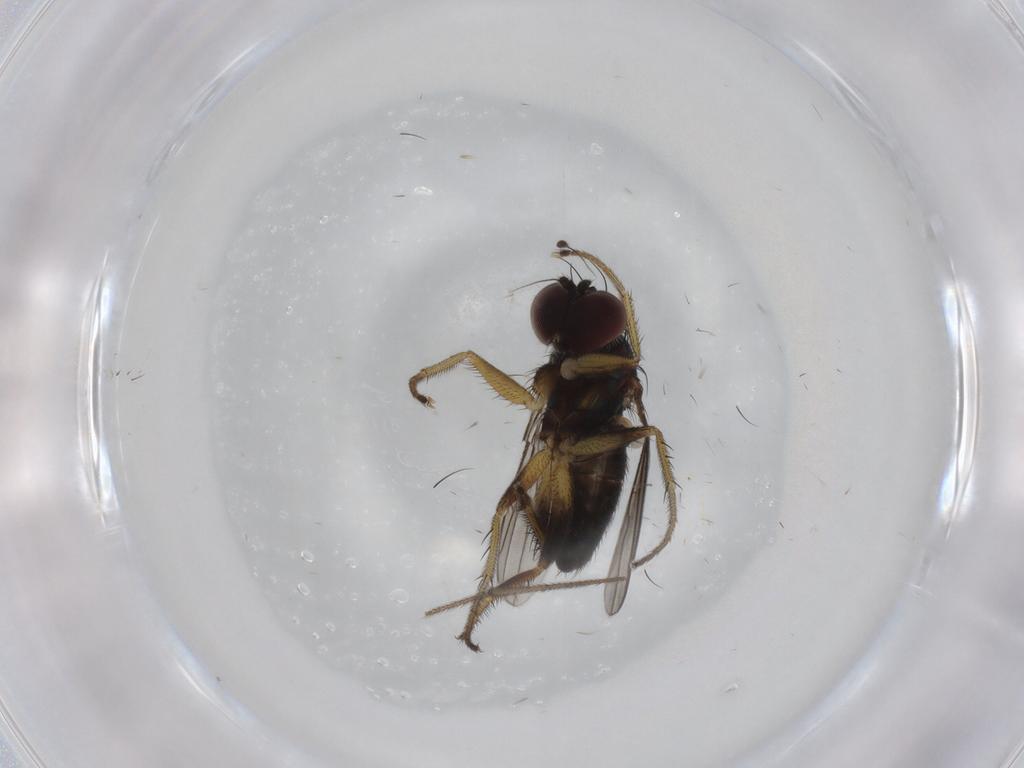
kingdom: Animalia
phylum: Arthropoda
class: Insecta
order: Diptera
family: Dolichopodidae
